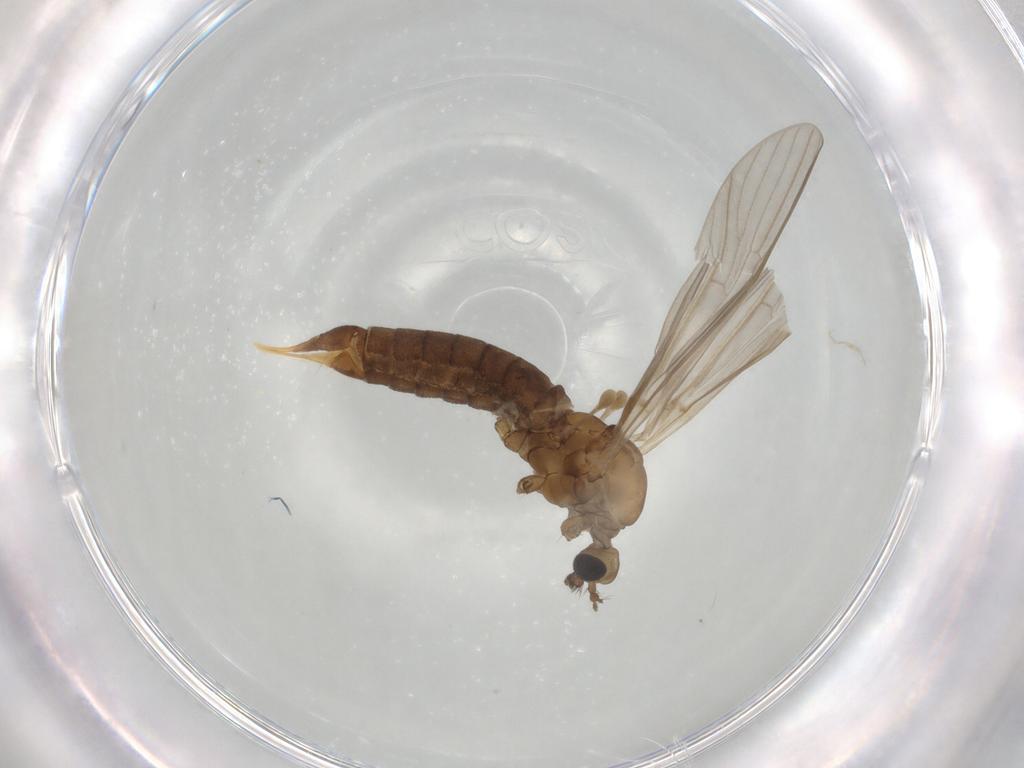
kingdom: Animalia
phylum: Arthropoda
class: Insecta
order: Diptera
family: Limoniidae
